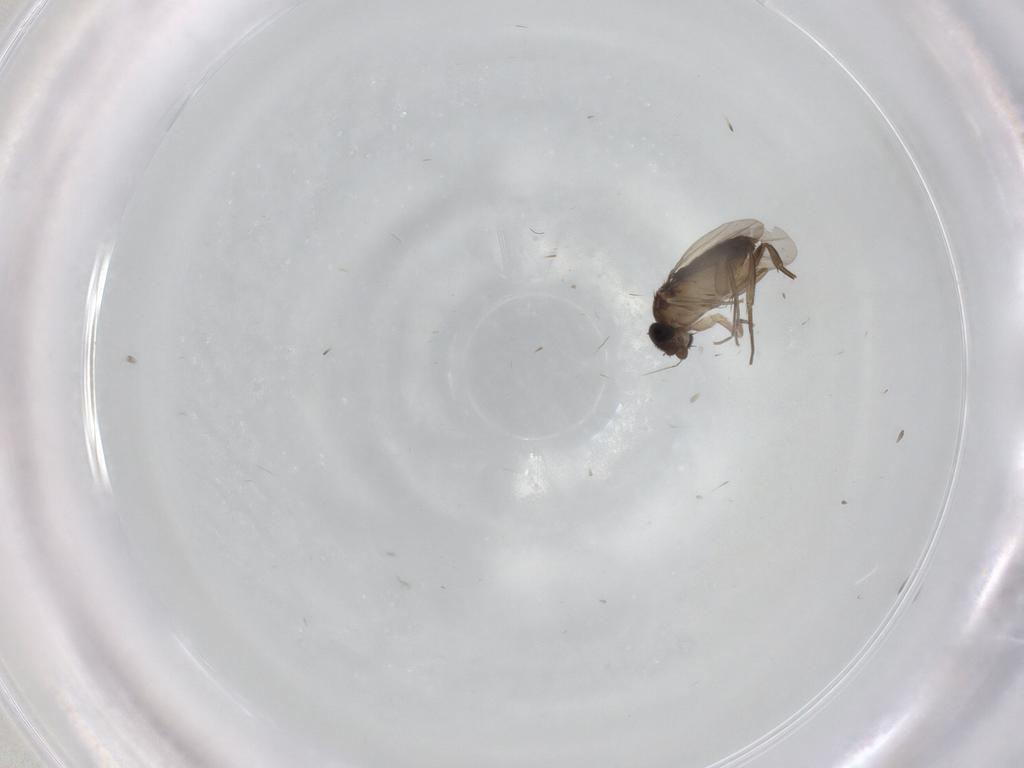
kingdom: Animalia
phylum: Arthropoda
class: Insecta
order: Diptera
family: Phoridae
